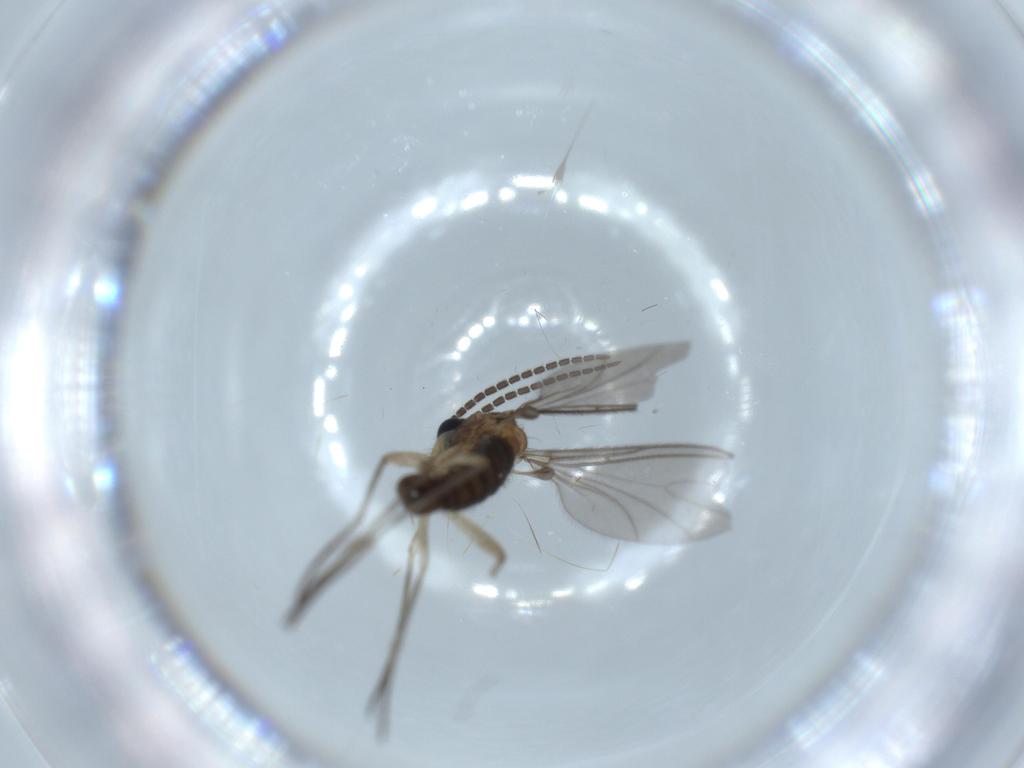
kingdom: Animalia
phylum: Arthropoda
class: Insecta
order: Diptera
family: Sciaridae
